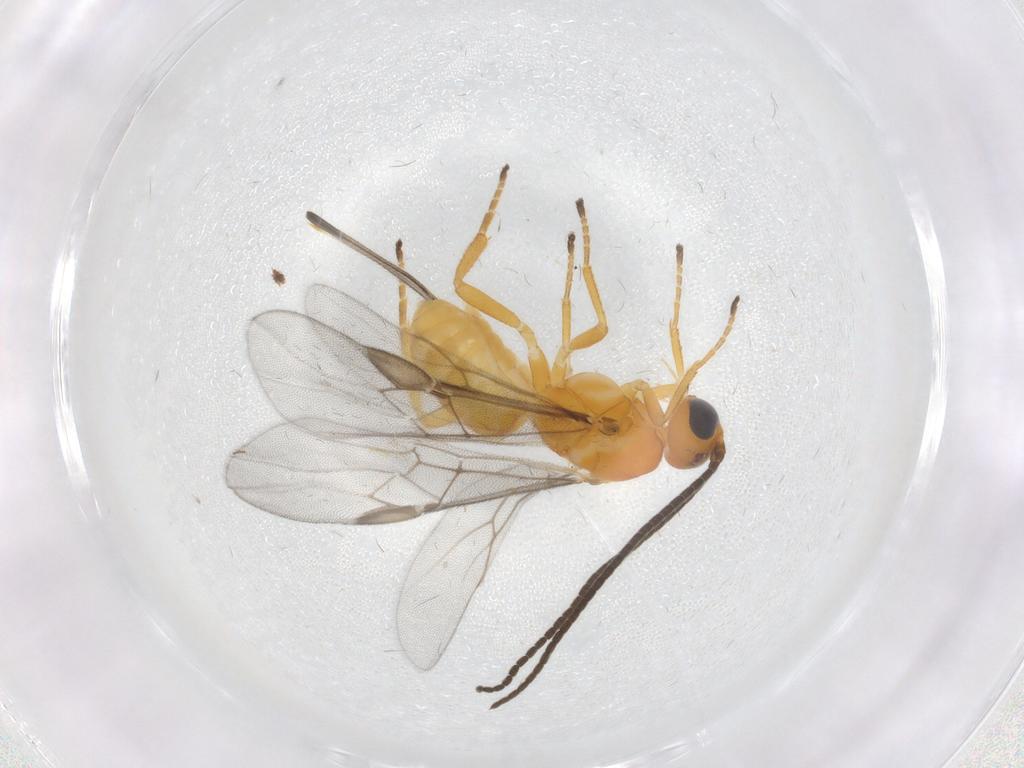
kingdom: Animalia
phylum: Arthropoda
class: Insecta
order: Hymenoptera
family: Braconidae
